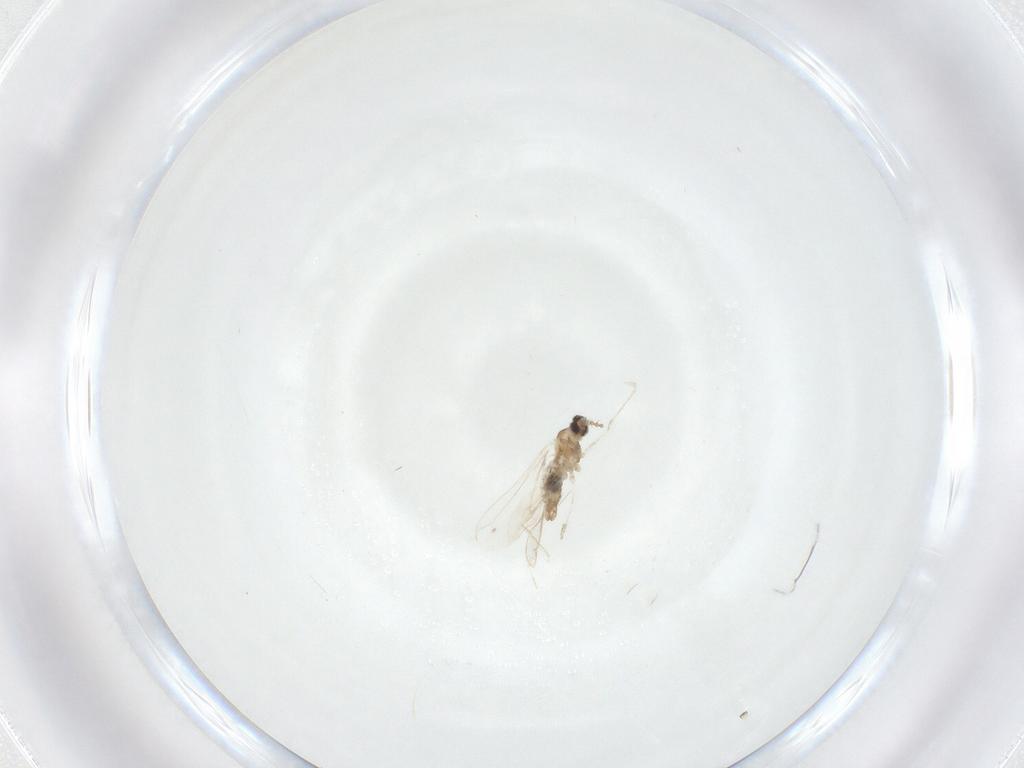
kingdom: Animalia
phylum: Arthropoda
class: Insecta
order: Diptera
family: Cecidomyiidae
